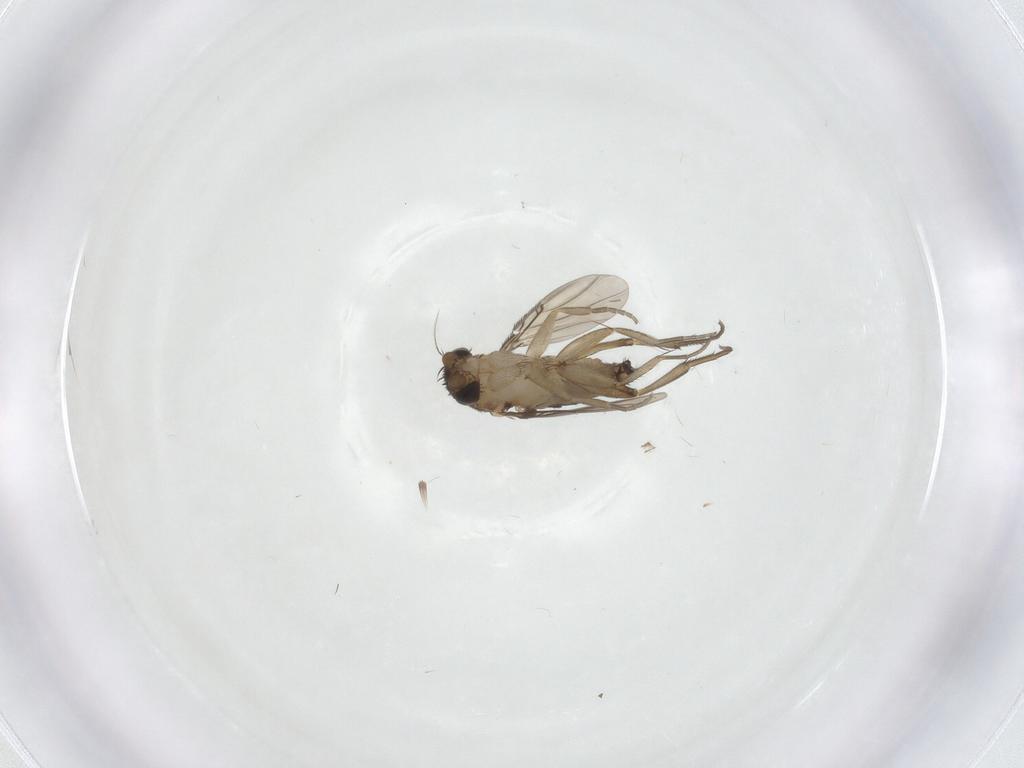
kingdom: Animalia
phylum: Arthropoda
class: Insecta
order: Diptera
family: Phoridae
